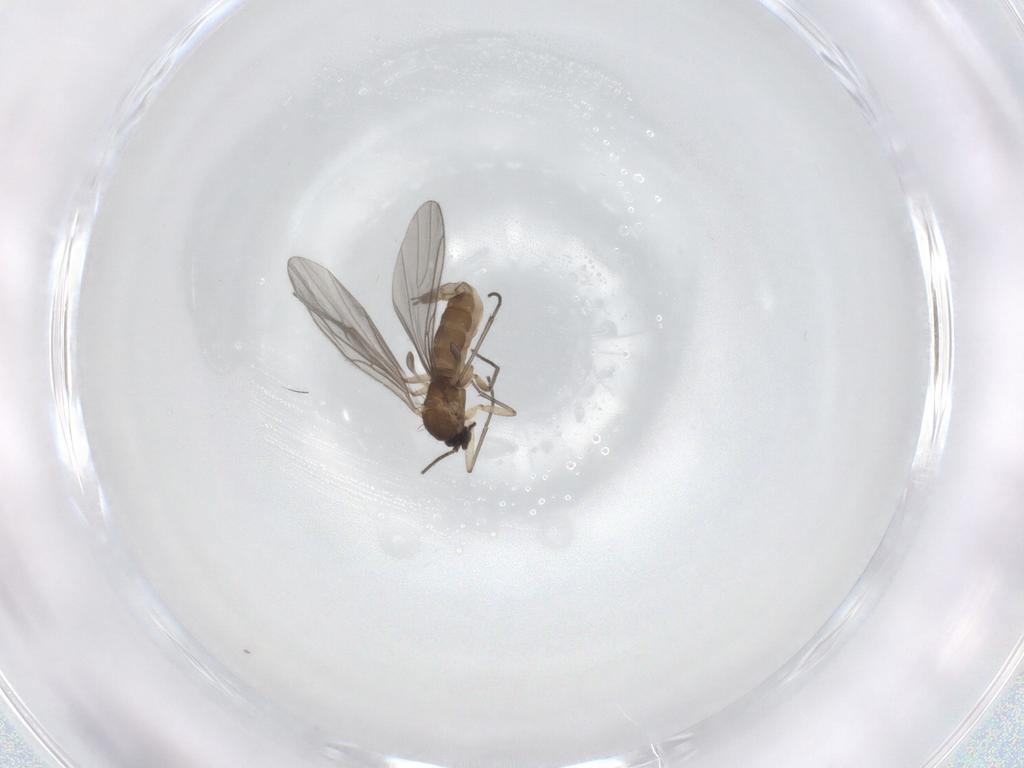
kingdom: Animalia
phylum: Arthropoda
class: Insecta
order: Diptera
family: Sciaridae
